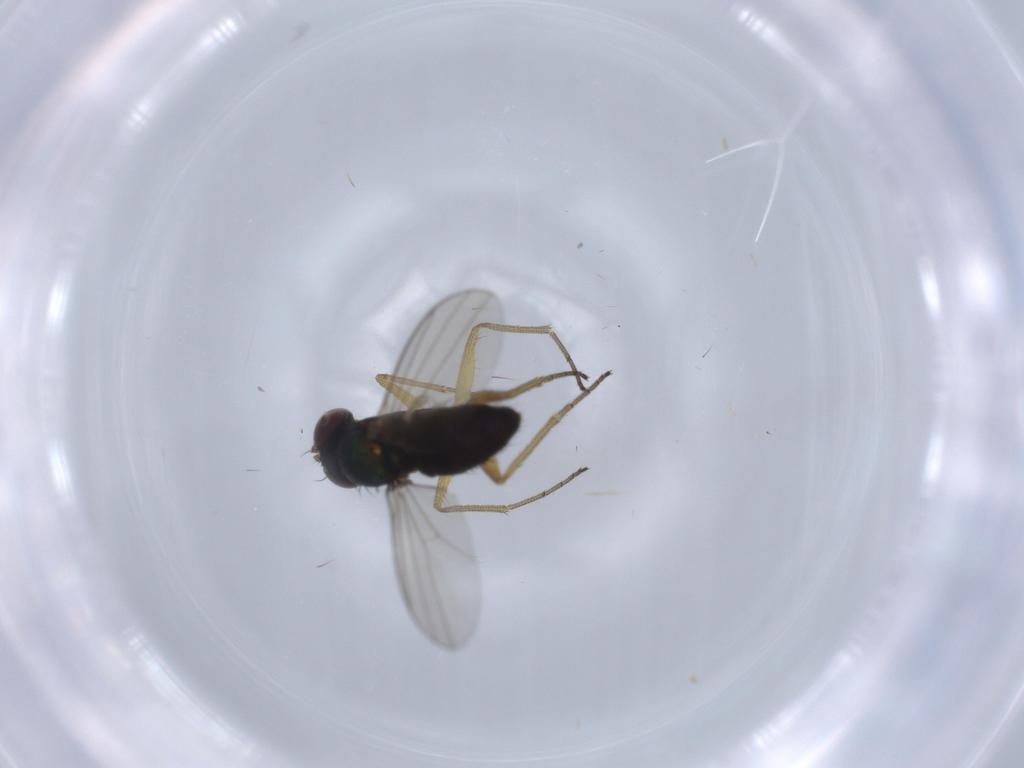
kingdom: Animalia
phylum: Arthropoda
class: Insecta
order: Diptera
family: Dolichopodidae
